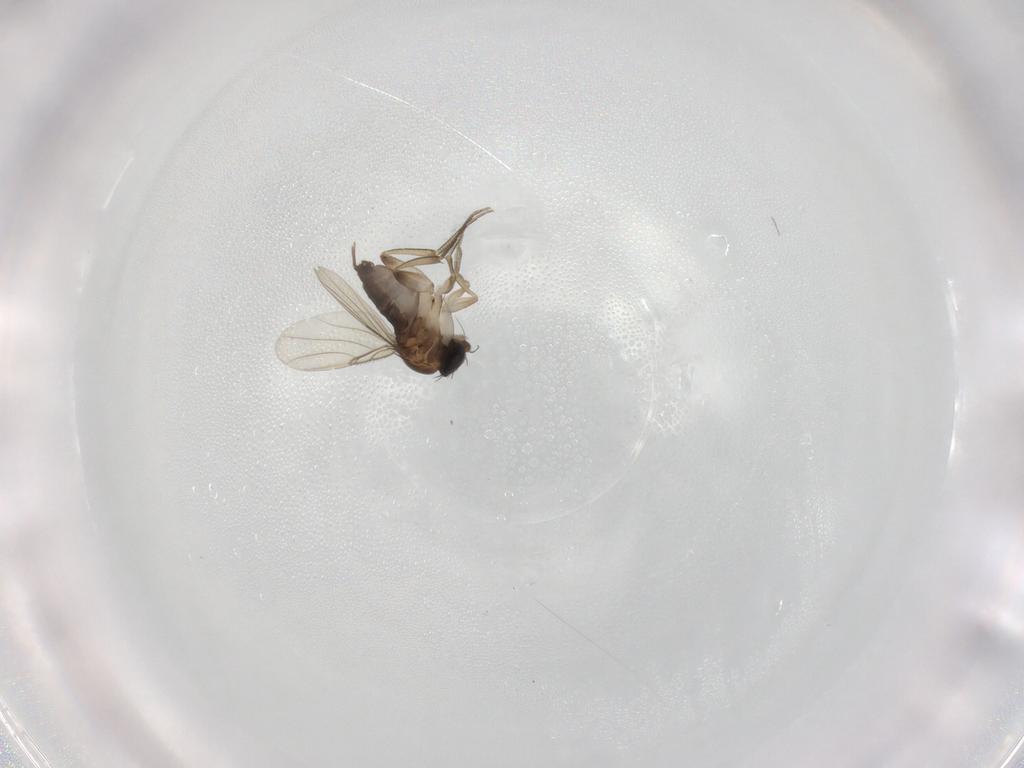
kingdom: Animalia
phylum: Arthropoda
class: Insecta
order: Diptera
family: Phoridae
